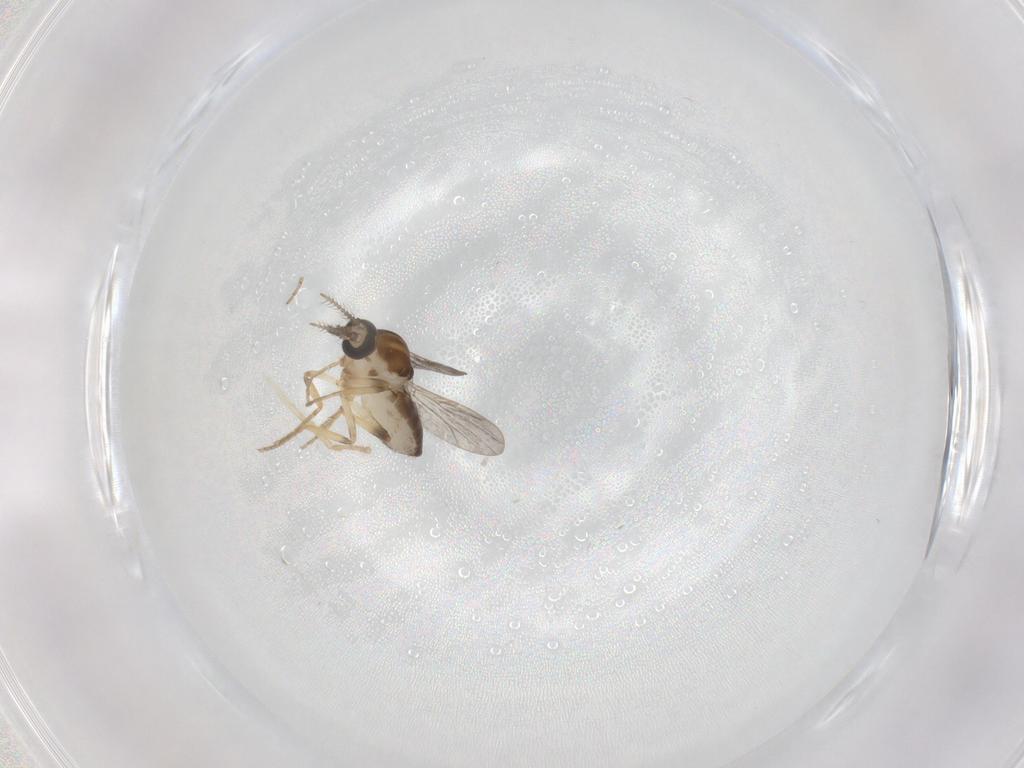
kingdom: Animalia
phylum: Arthropoda
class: Insecta
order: Diptera
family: Ceratopogonidae
